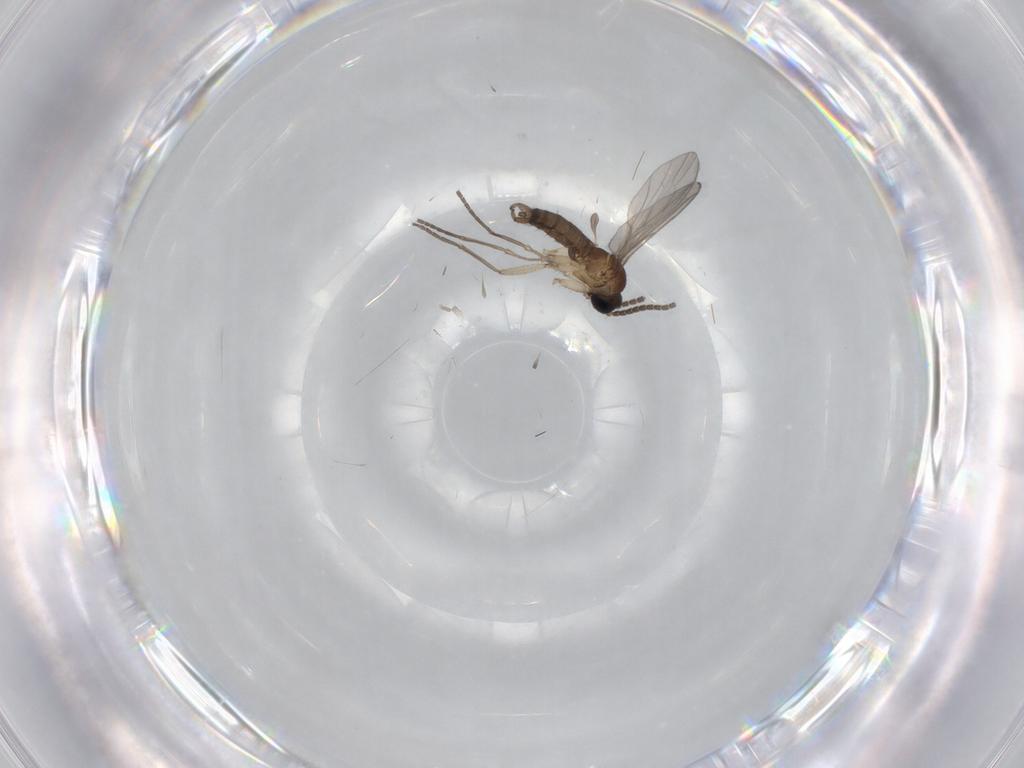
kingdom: Animalia
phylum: Arthropoda
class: Insecta
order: Diptera
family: Sciaridae
